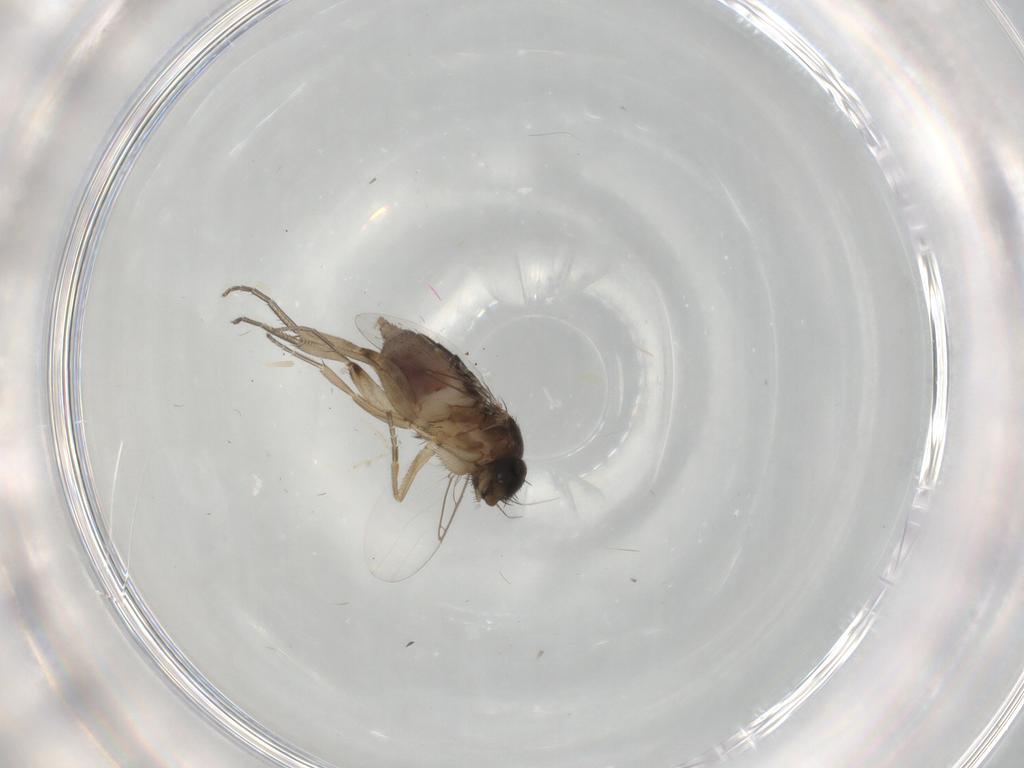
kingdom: Animalia
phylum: Arthropoda
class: Insecta
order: Diptera
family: Phoridae
